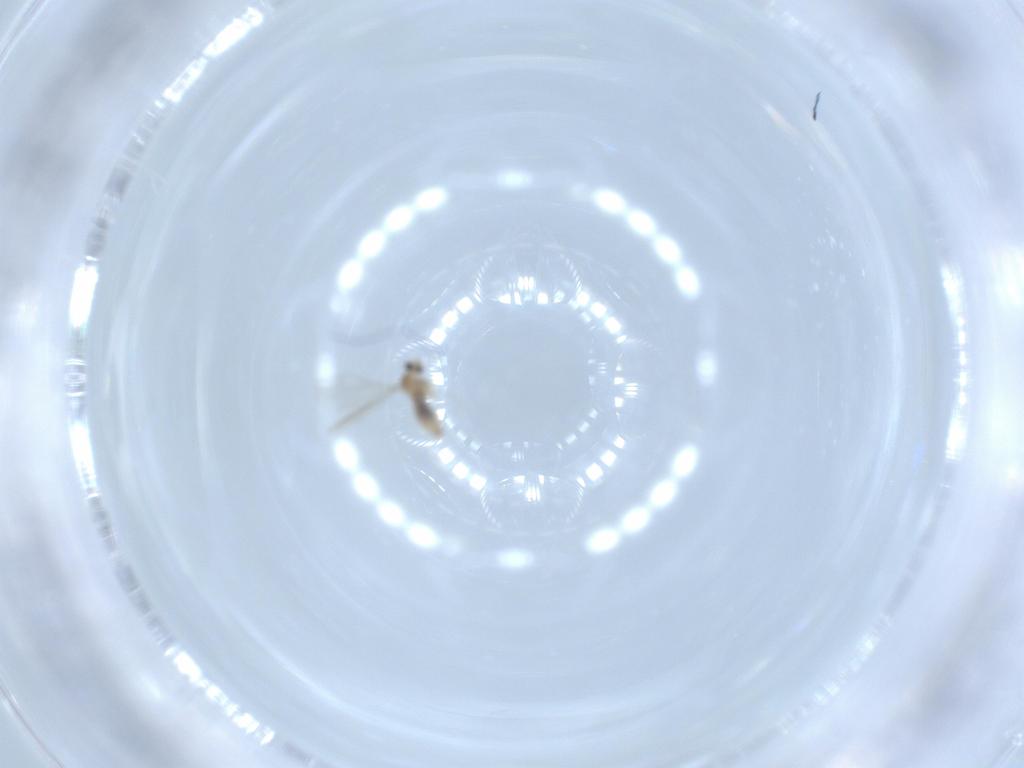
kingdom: Animalia
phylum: Arthropoda
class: Insecta
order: Diptera
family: Cecidomyiidae
